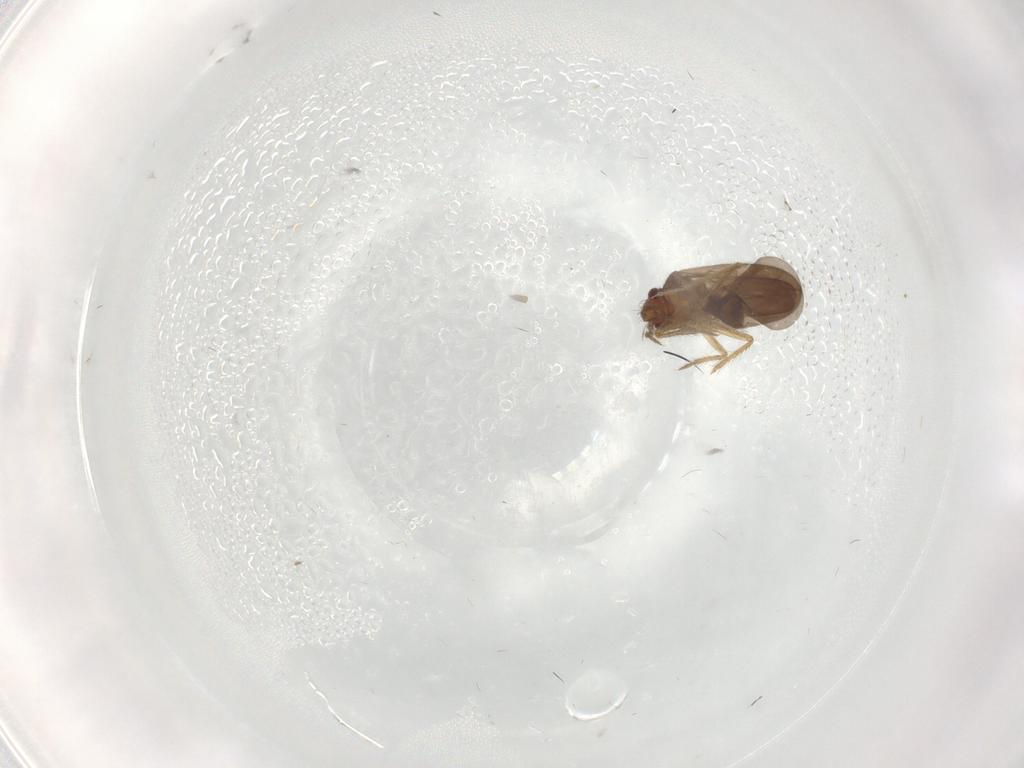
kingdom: Animalia
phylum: Arthropoda
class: Insecta
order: Hemiptera
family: Ceratocombidae
